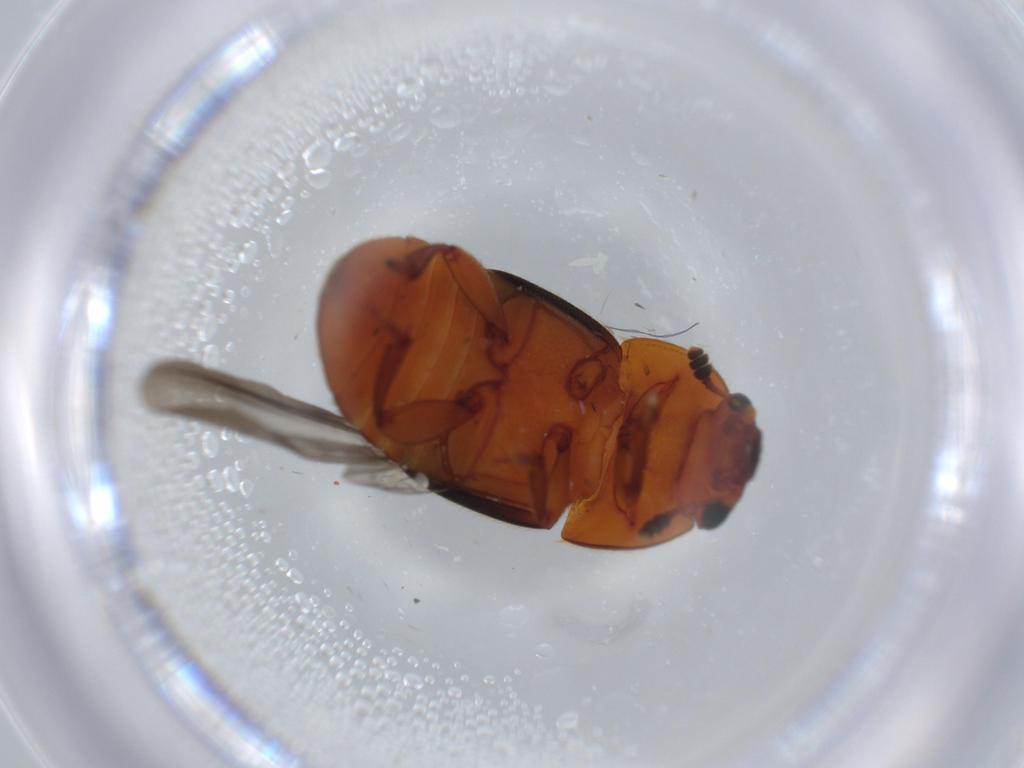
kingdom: Animalia
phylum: Arthropoda
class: Insecta
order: Coleoptera
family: Nitidulidae
